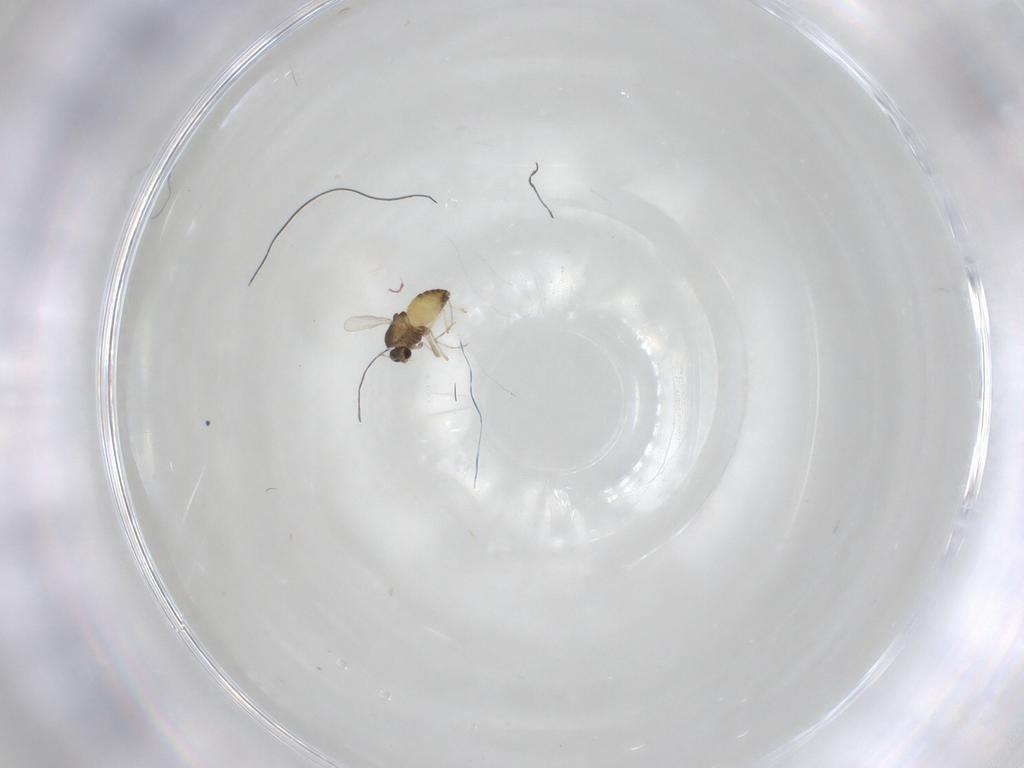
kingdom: Animalia
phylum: Arthropoda
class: Insecta
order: Diptera
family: Chironomidae
